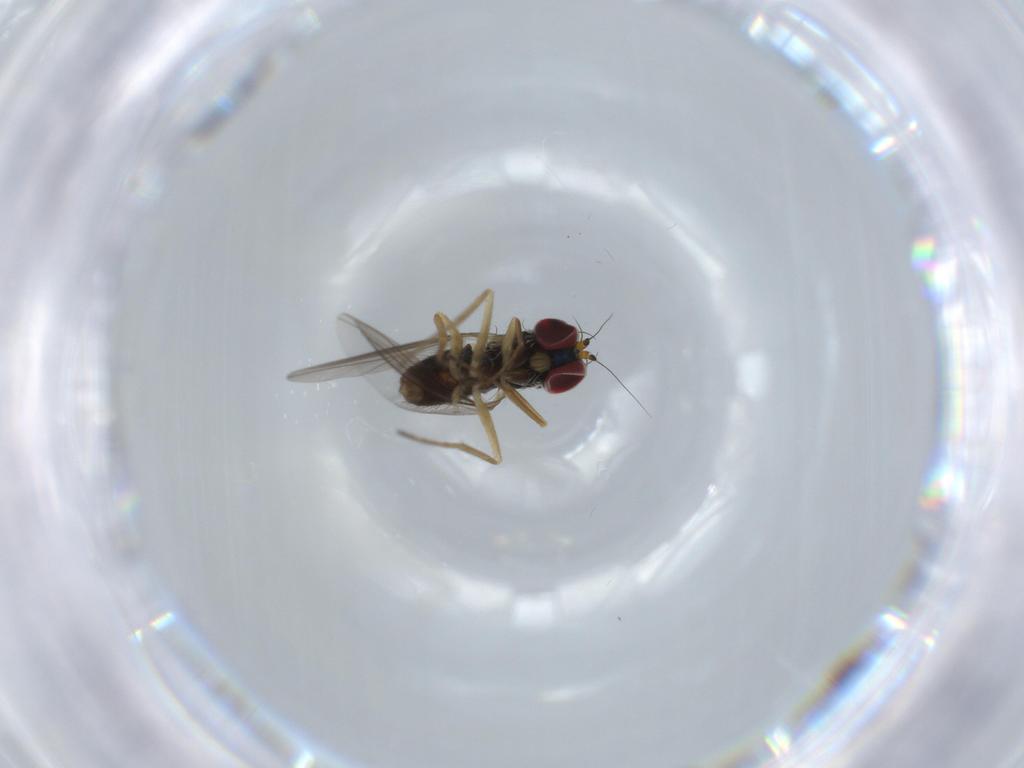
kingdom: Animalia
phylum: Arthropoda
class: Insecta
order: Diptera
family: Dolichopodidae
